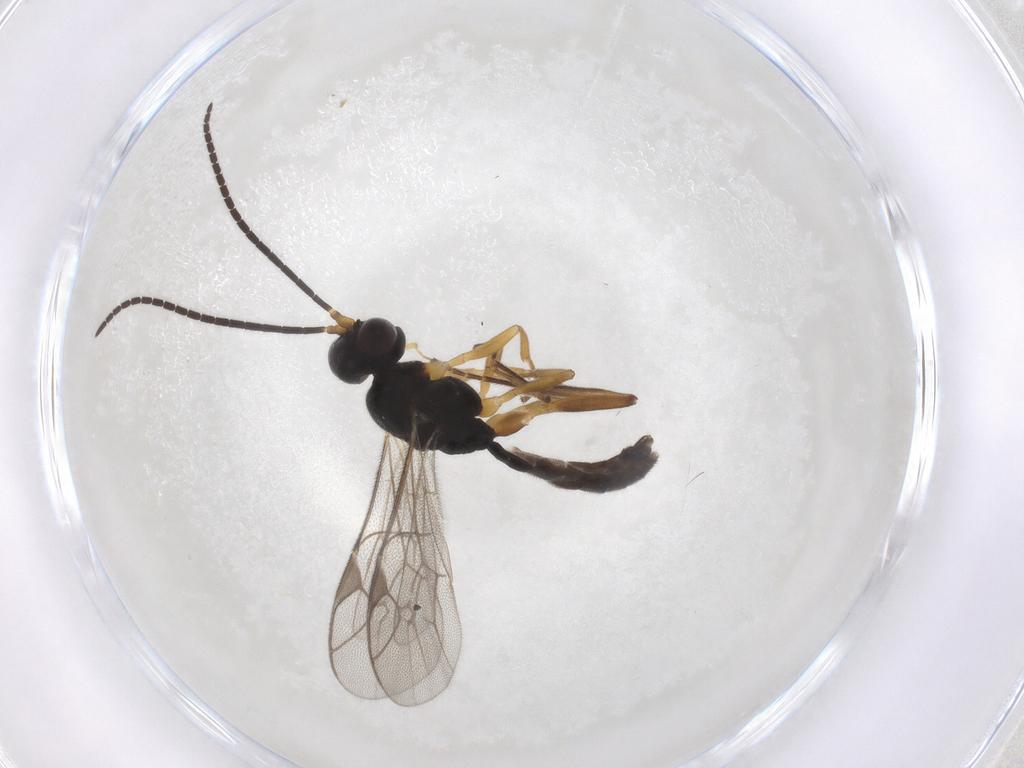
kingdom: Animalia
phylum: Arthropoda
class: Insecta
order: Hymenoptera
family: Ichneumonidae
